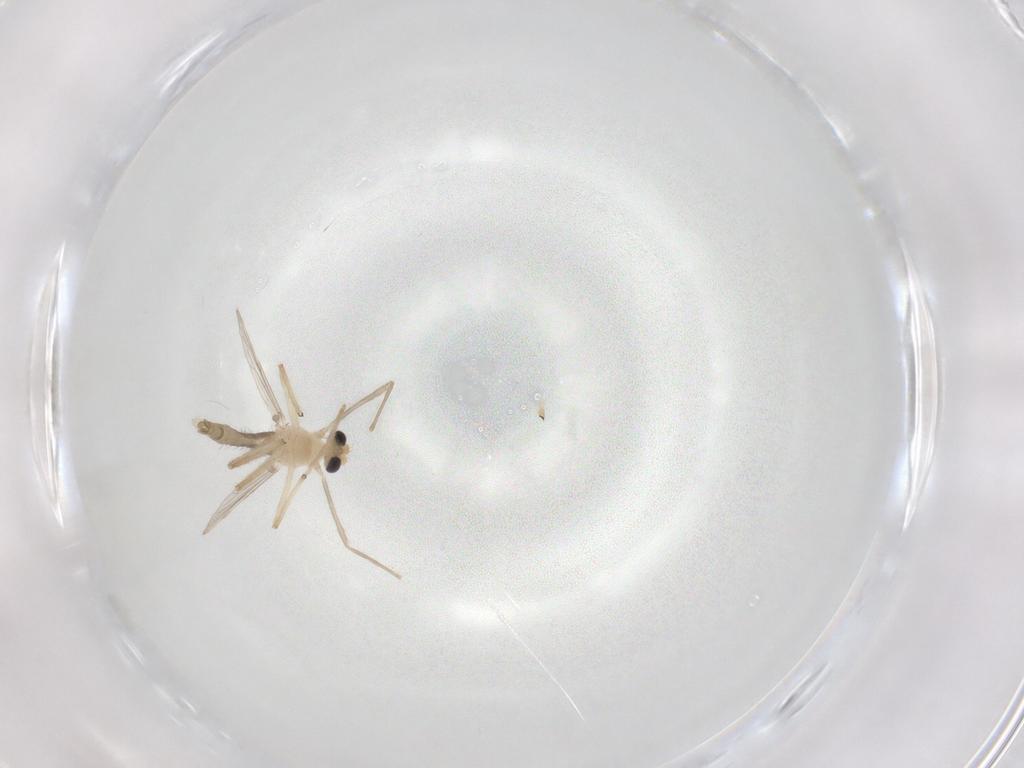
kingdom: Animalia
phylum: Arthropoda
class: Insecta
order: Diptera
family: Chironomidae
